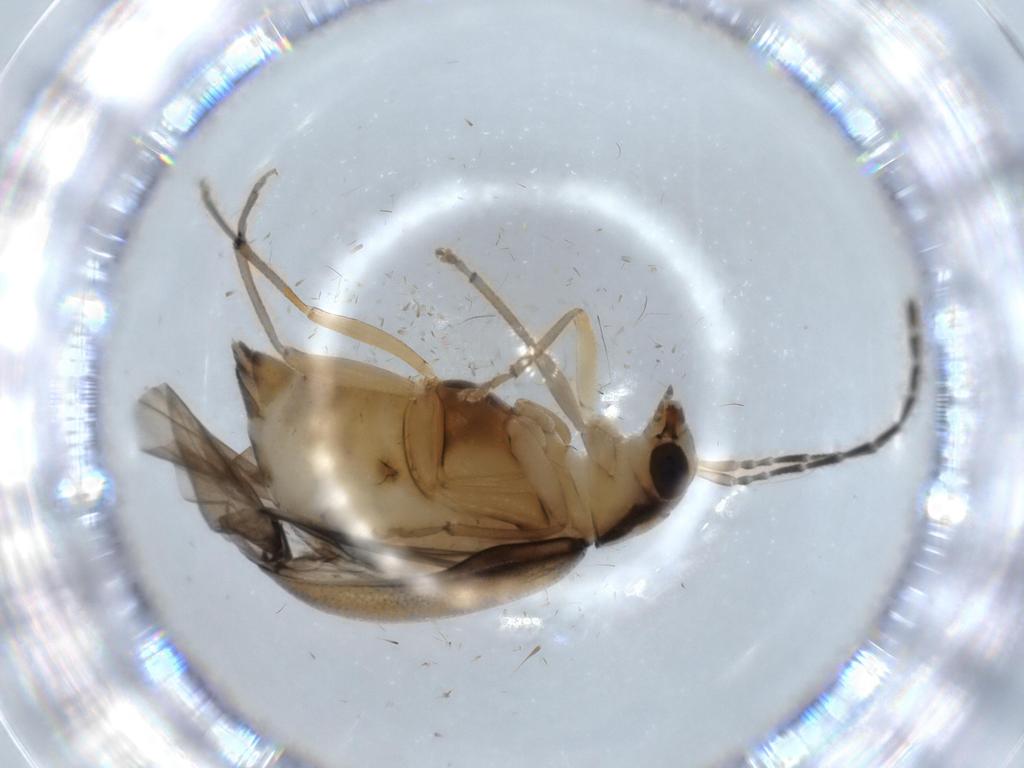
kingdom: Animalia
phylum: Arthropoda
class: Insecta
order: Coleoptera
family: Chrysomelidae
